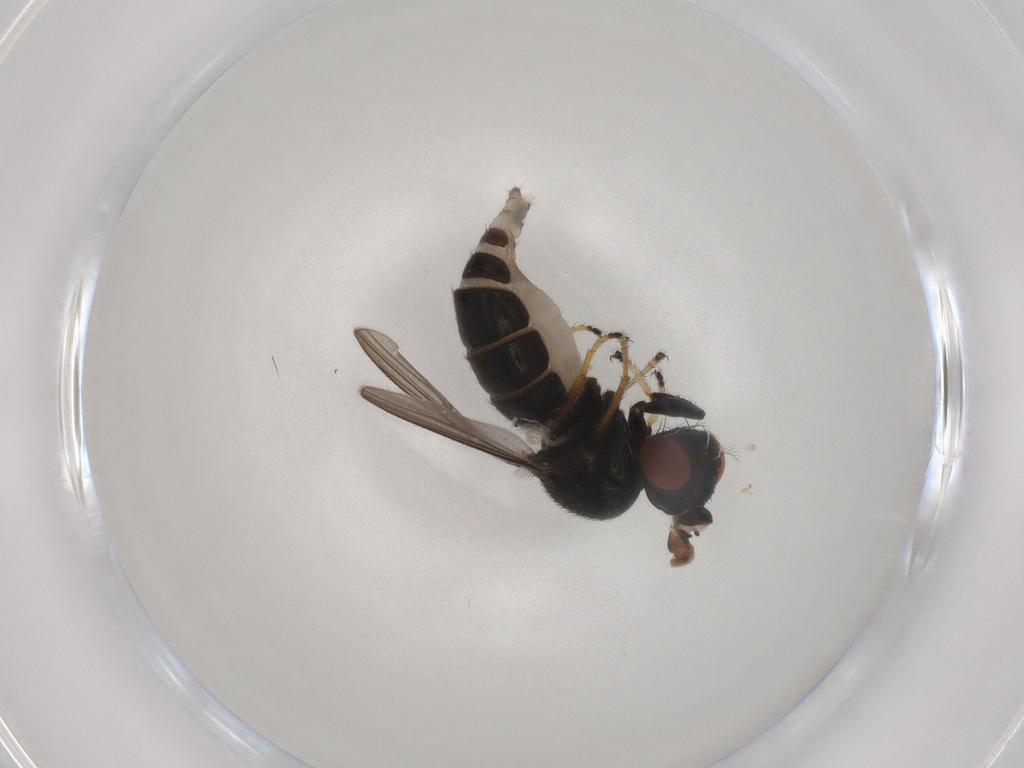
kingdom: Animalia
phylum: Arthropoda
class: Insecta
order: Diptera
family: Ephydridae
